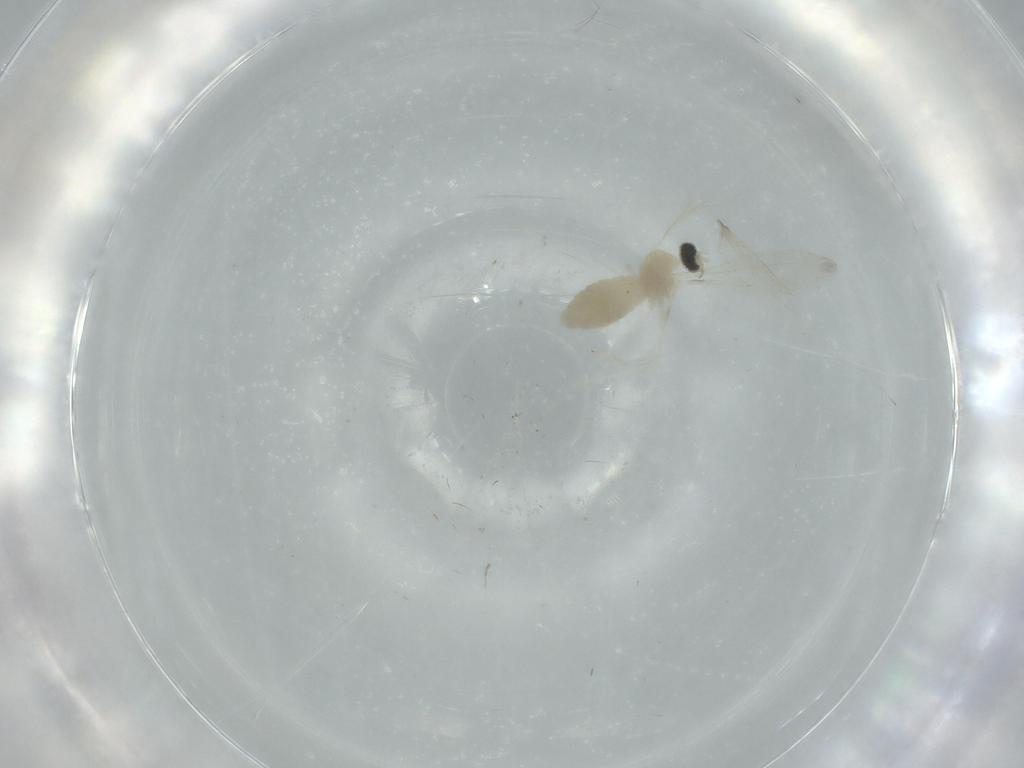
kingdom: Animalia
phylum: Arthropoda
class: Insecta
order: Diptera
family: Cecidomyiidae
